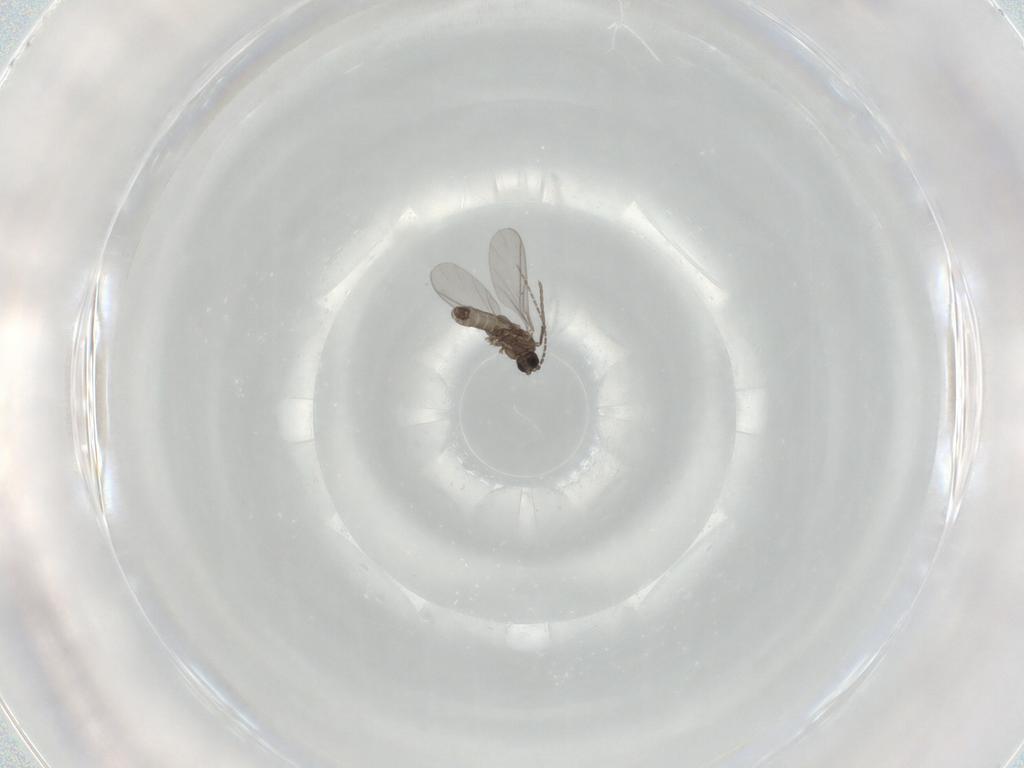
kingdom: Animalia
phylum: Arthropoda
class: Insecta
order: Diptera
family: Sciaridae
